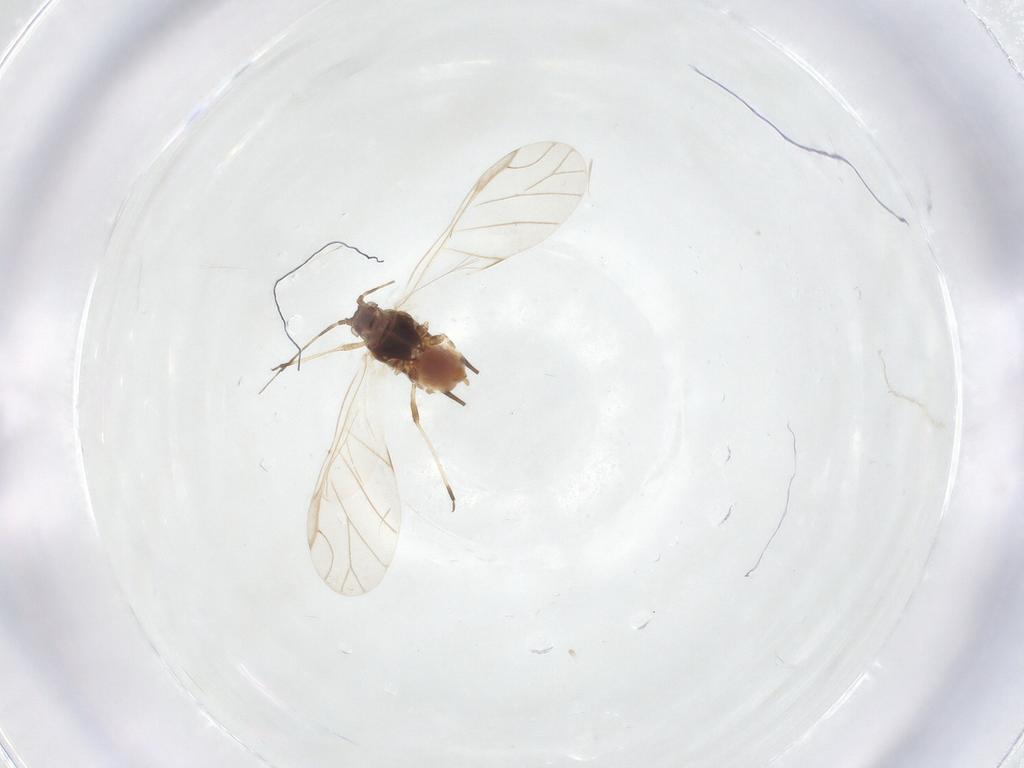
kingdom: Animalia
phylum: Arthropoda
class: Insecta
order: Hemiptera
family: Aphididae
